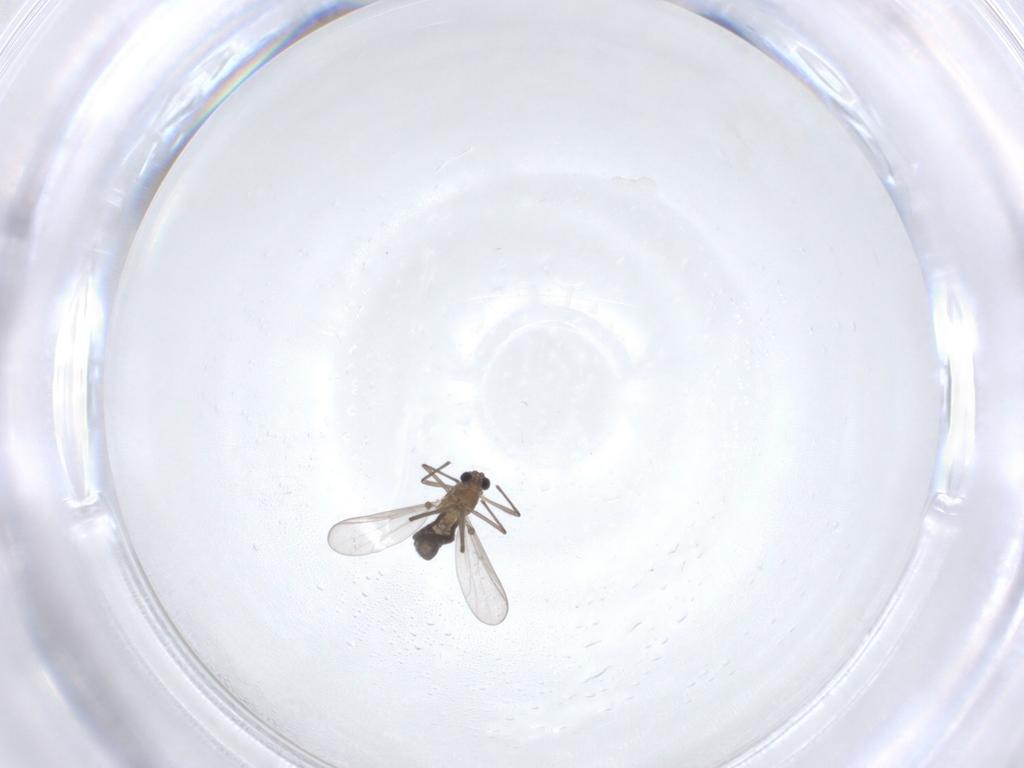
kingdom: Animalia
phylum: Arthropoda
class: Insecta
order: Diptera
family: Chironomidae
